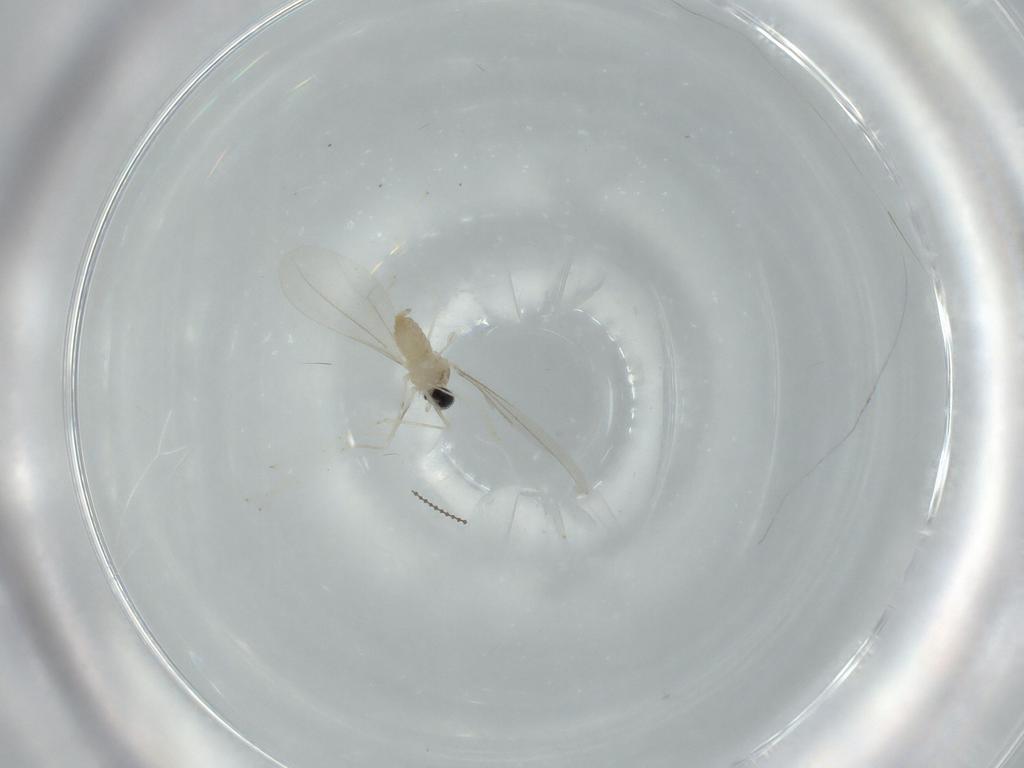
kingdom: Animalia
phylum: Arthropoda
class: Insecta
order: Diptera
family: Cecidomyiidae
